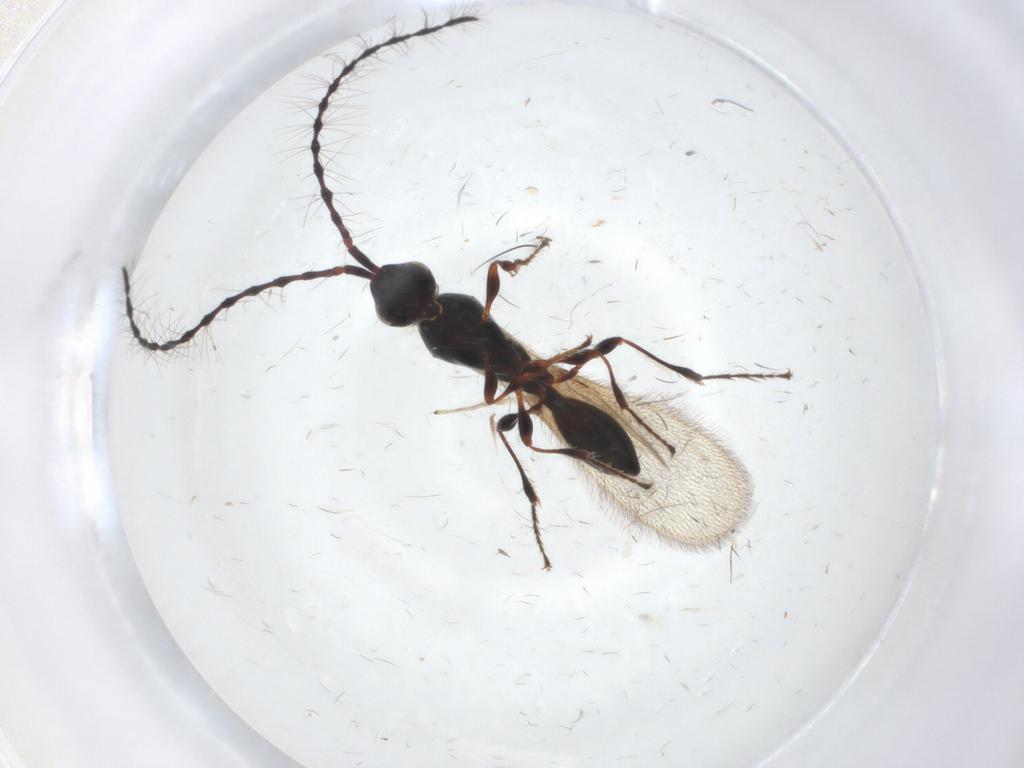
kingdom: Animalia
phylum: Arthropoda
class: Insecta
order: Hymenoptera
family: Diapriidae
